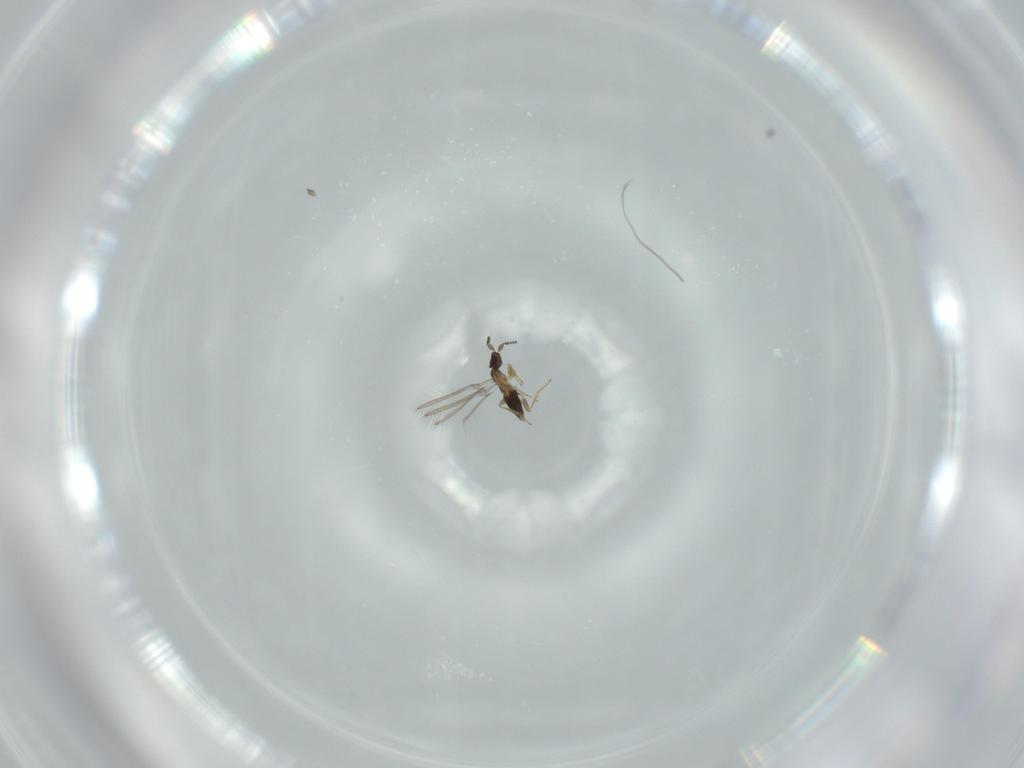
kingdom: Animalia
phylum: Arthropoda
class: Insecta
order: Hymenoptera
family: Mymaridae
